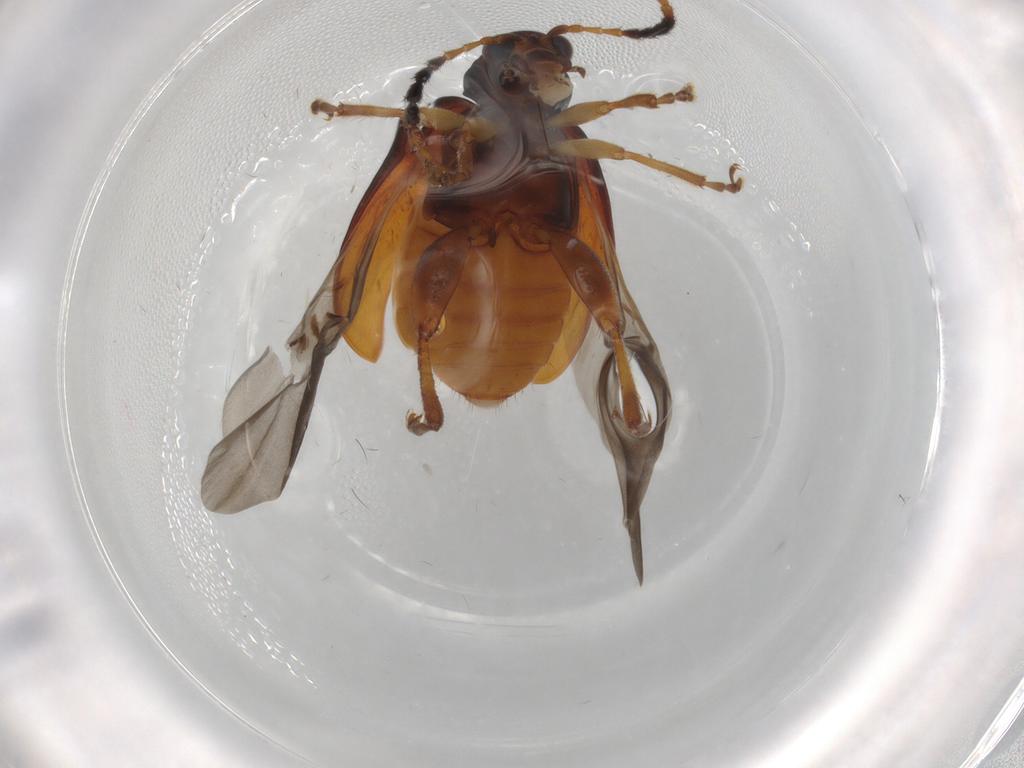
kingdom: Animalia
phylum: Arthropoda
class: Insecta
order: Coleoptera
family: Chrysomelidae
